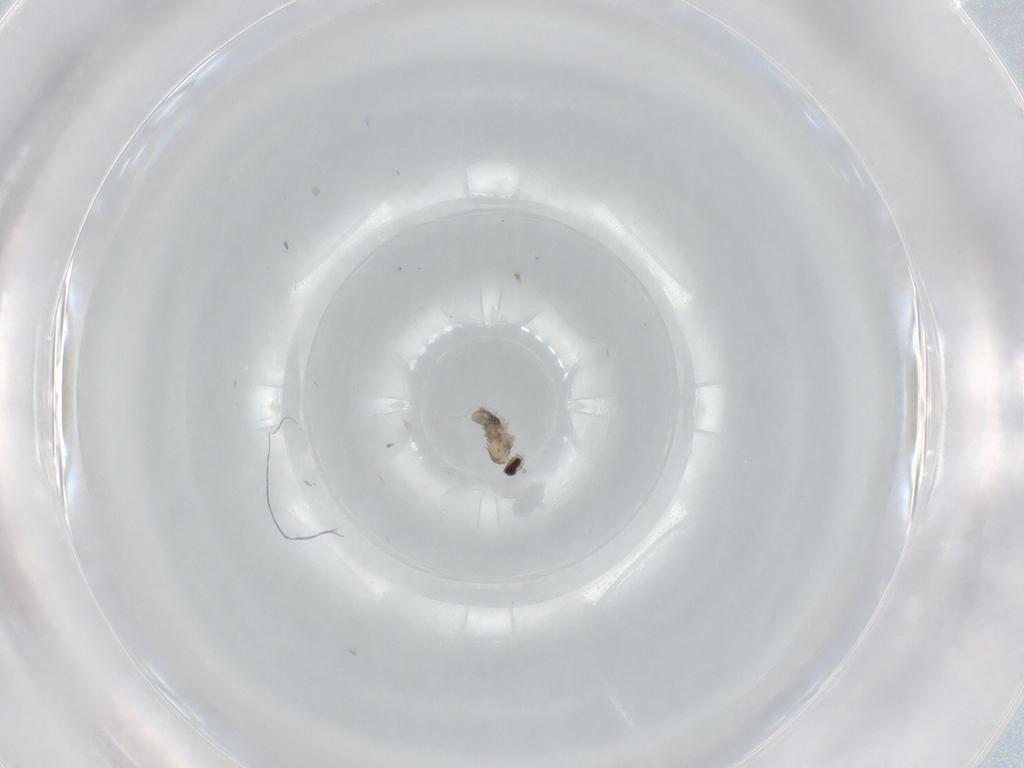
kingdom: Animalia
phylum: Arthropoda
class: Insecta
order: Diptera
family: Cecidomyiidae
